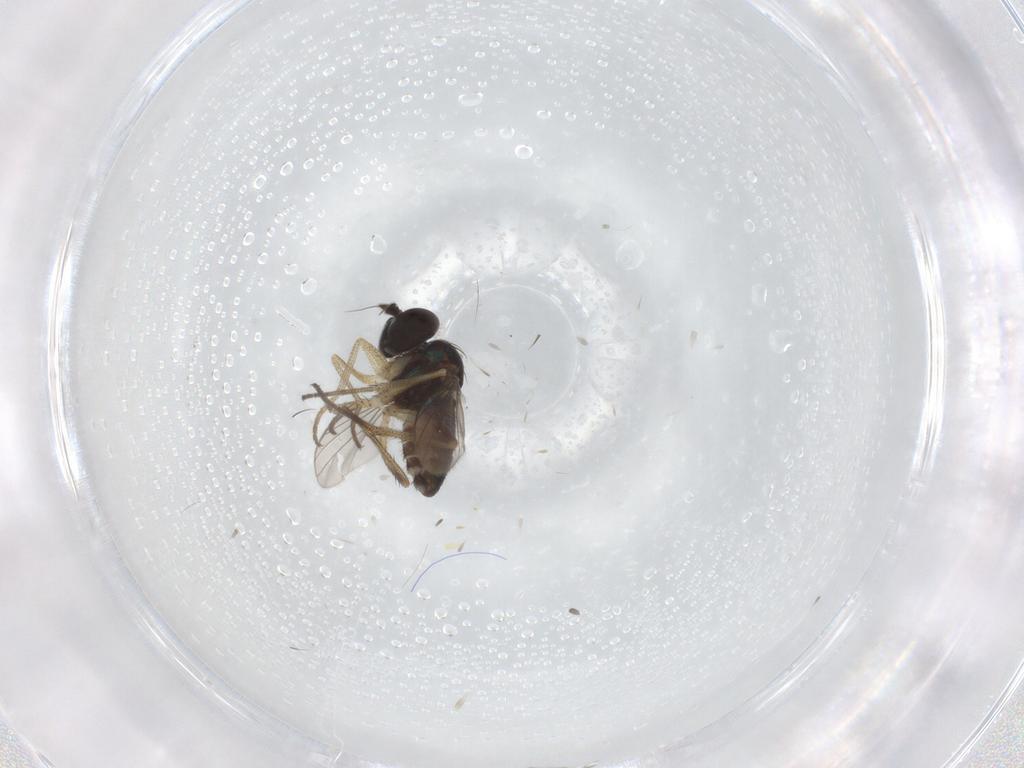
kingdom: Animalia
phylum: Arthropoda
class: Insecta
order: Diptera
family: Dolichopodidae
